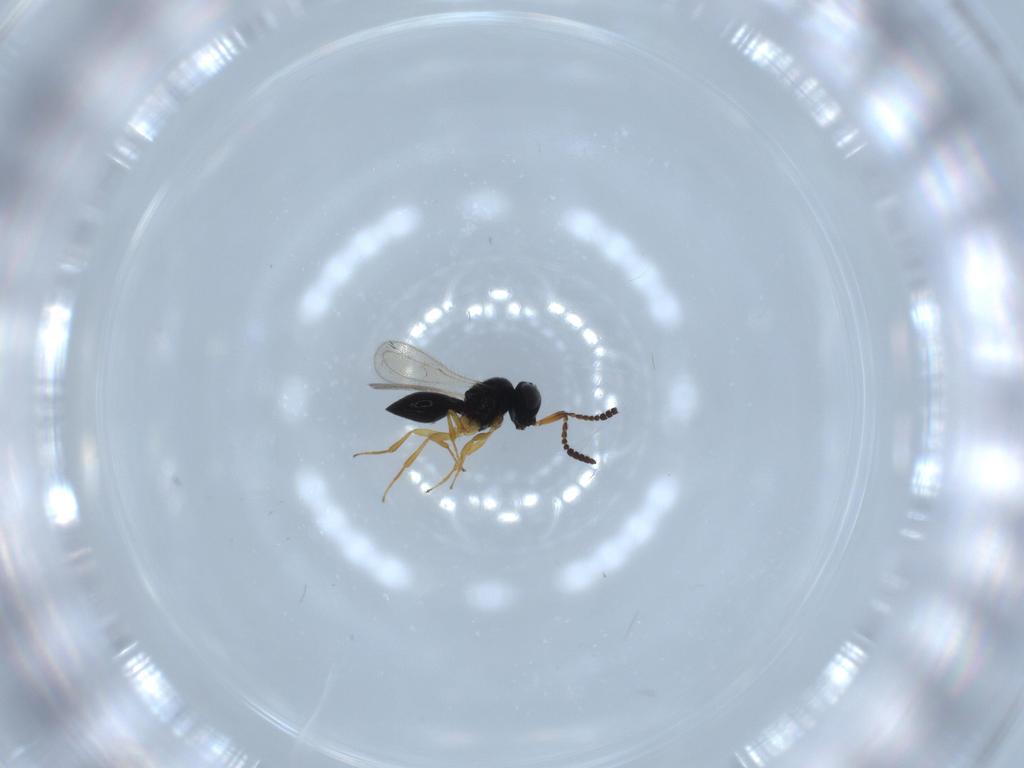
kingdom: Animalia
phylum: Arthropoda
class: Insecta
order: Hymenoptera
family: Scelionidae
